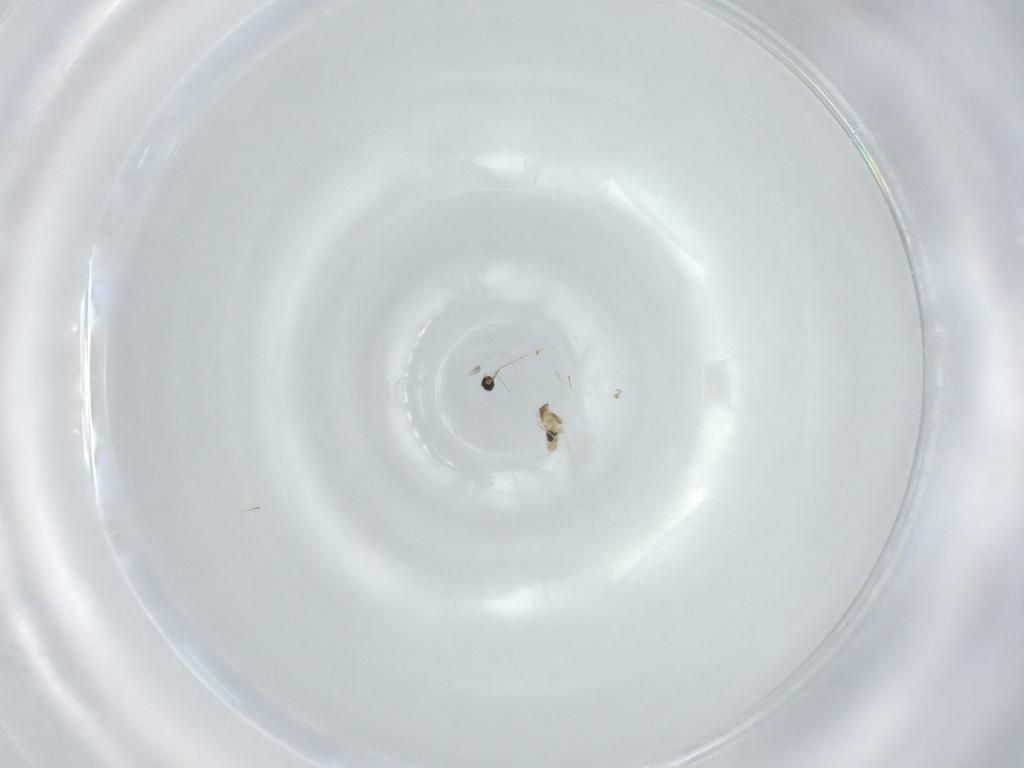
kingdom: Animalia
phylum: Arthropoda
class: Insecta
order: Diptera
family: Cecidomyiidae
